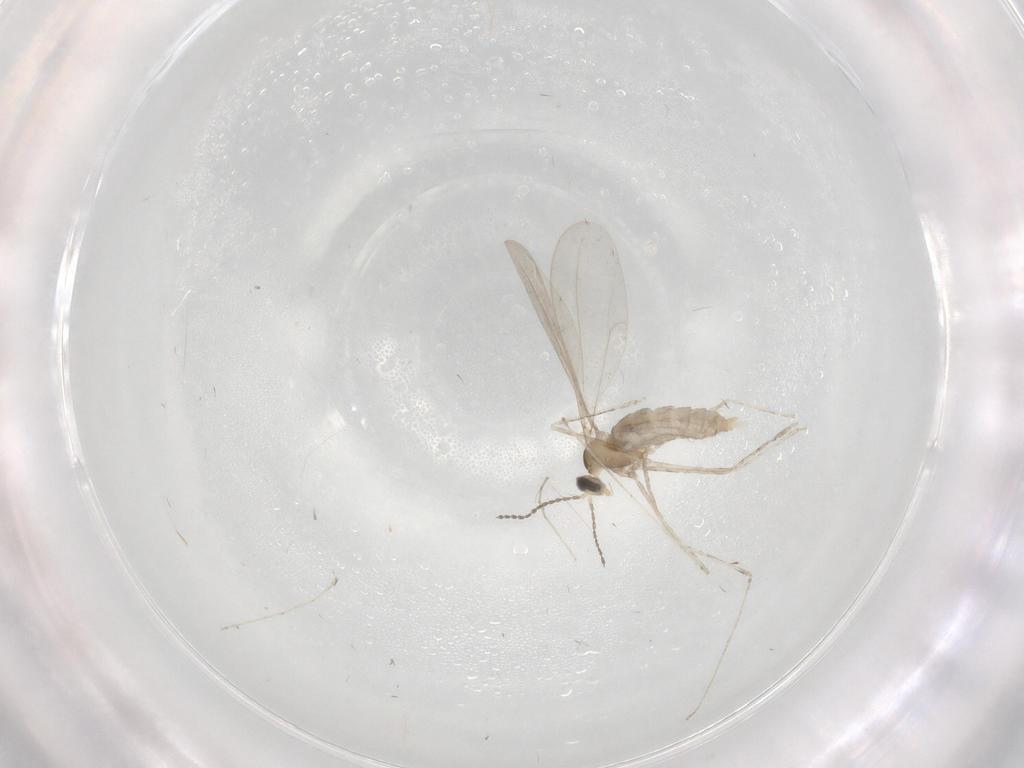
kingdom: Animalia
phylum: Arthropoda
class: Insecta
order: Diptera
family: Cecidomyiidae
